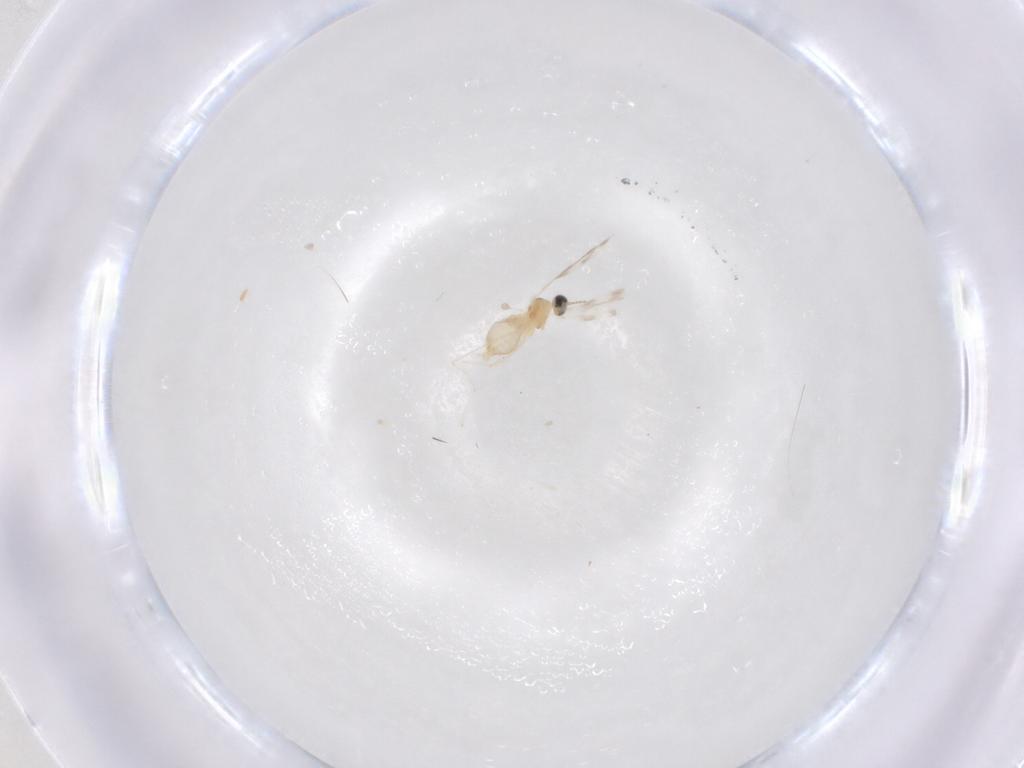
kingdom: Animalia
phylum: Arthropoda
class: Insecta
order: Diptera
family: Cecidomyiidae
